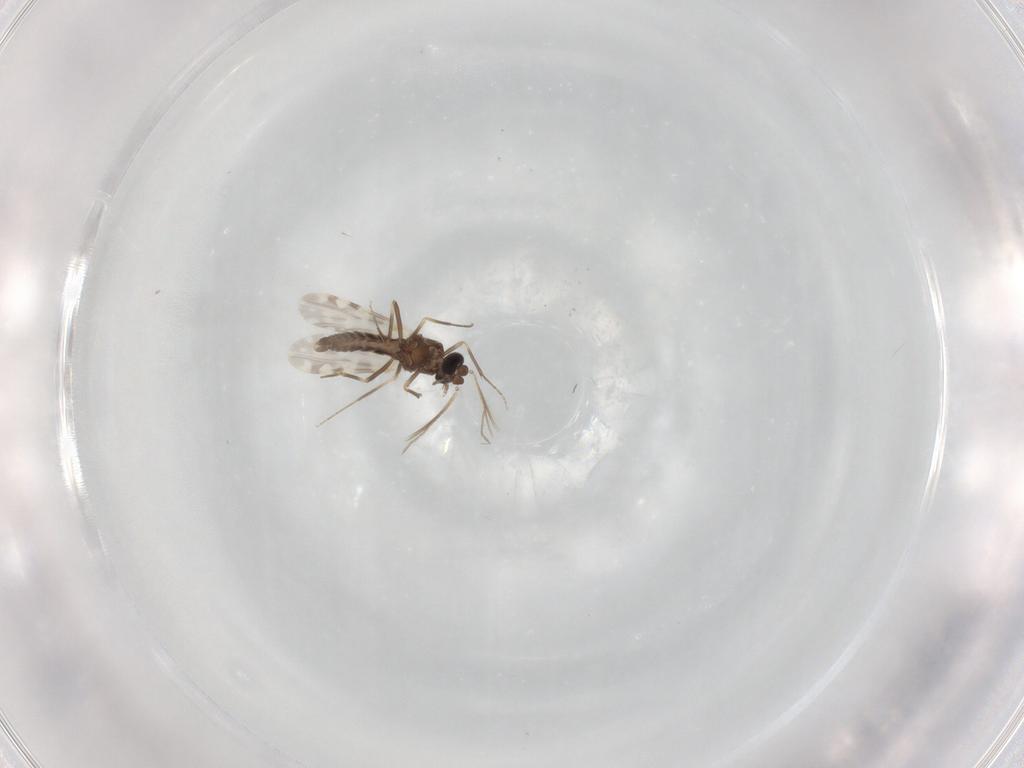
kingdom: Animalia
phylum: Arthropoda
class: Insecta
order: Diptera
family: Ceratopogonidae
